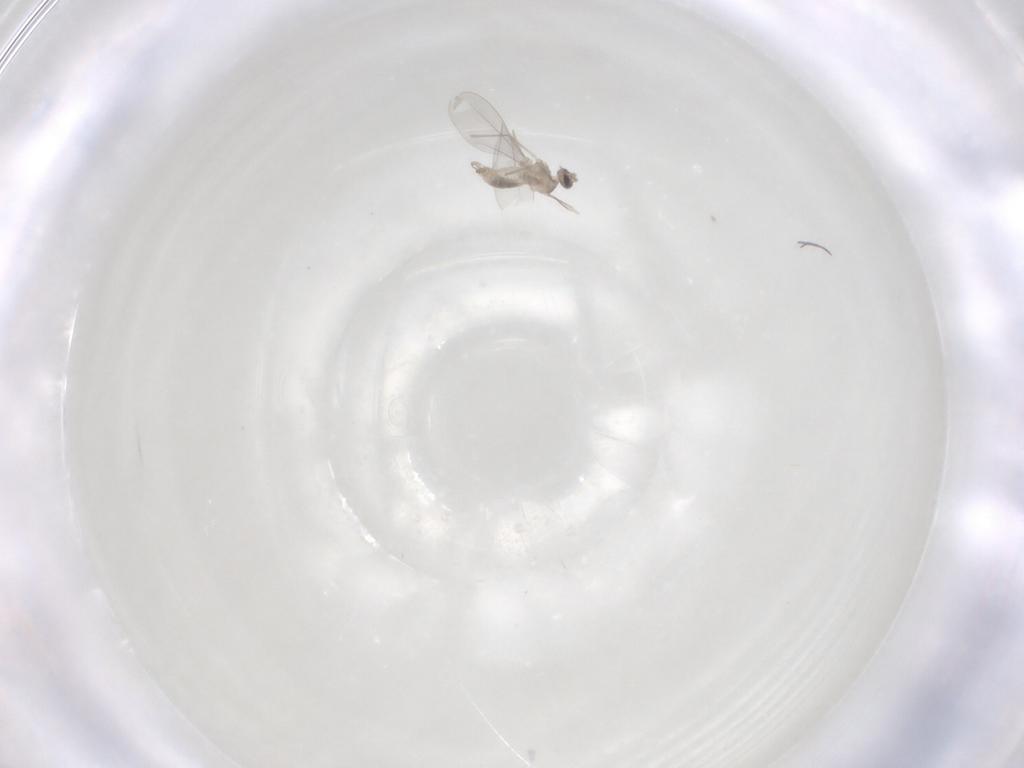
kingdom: Animalia
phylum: Arthropoda
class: Insecta
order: Diptera
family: Cecidomyiidae
